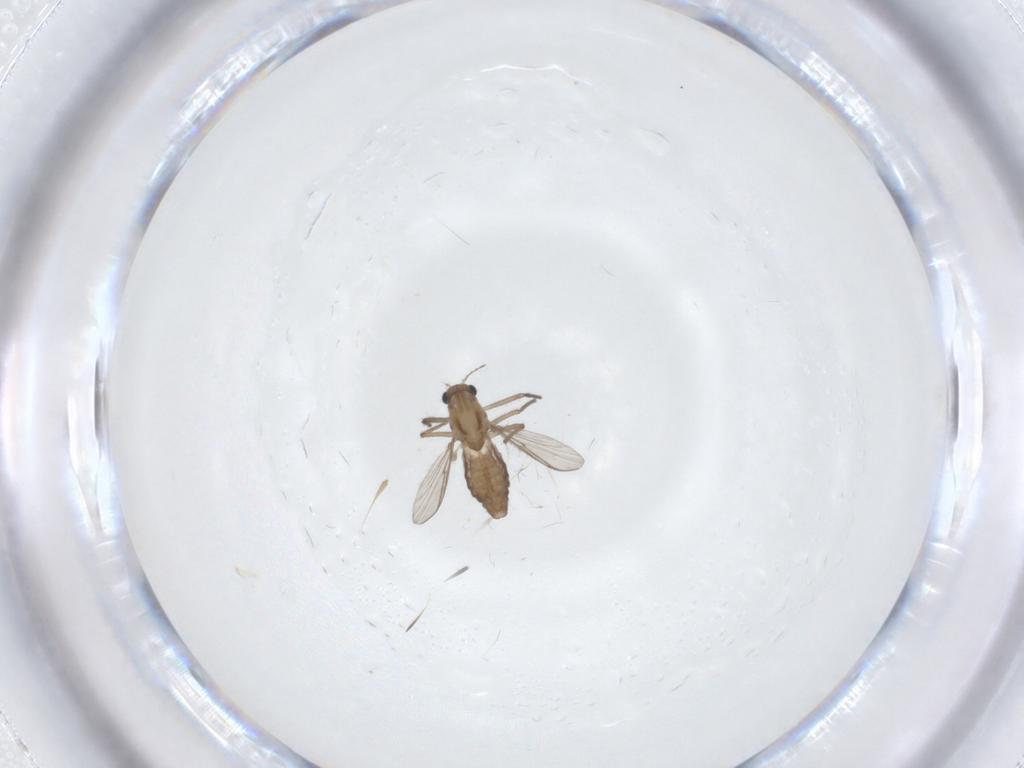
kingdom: Animalia
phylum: Arthropoda
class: Insecta
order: Diptera
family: Chironomidae
